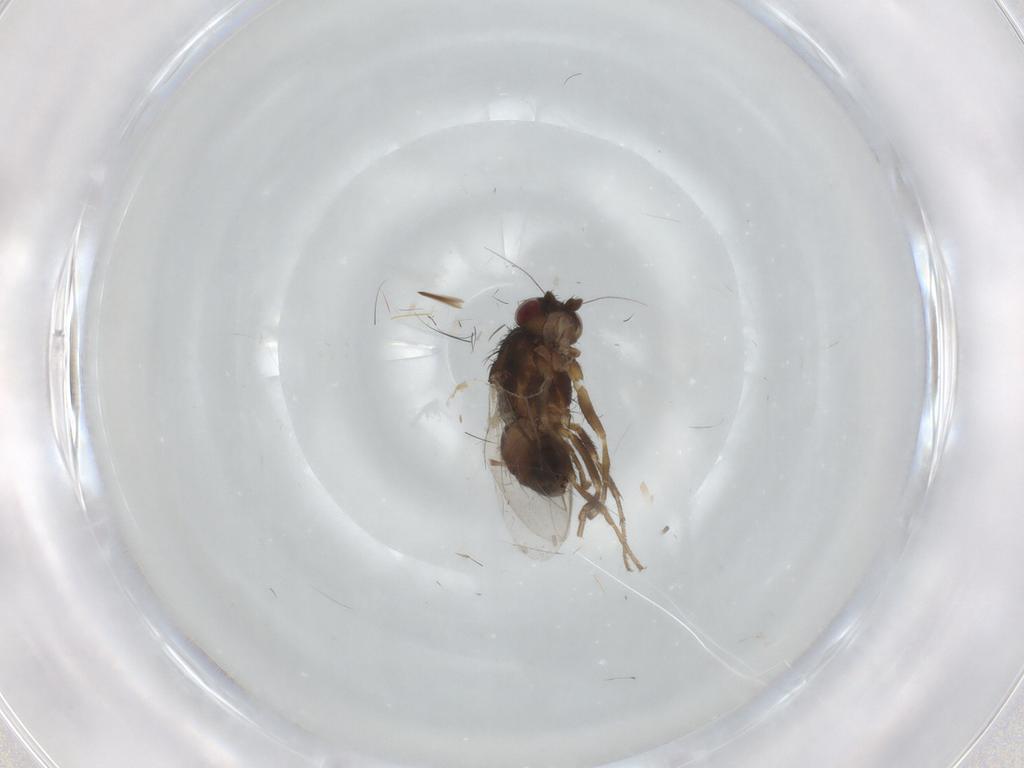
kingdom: Animalia
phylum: Arthropoda
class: Insecta
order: Diptera
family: Sphaeroceridae
